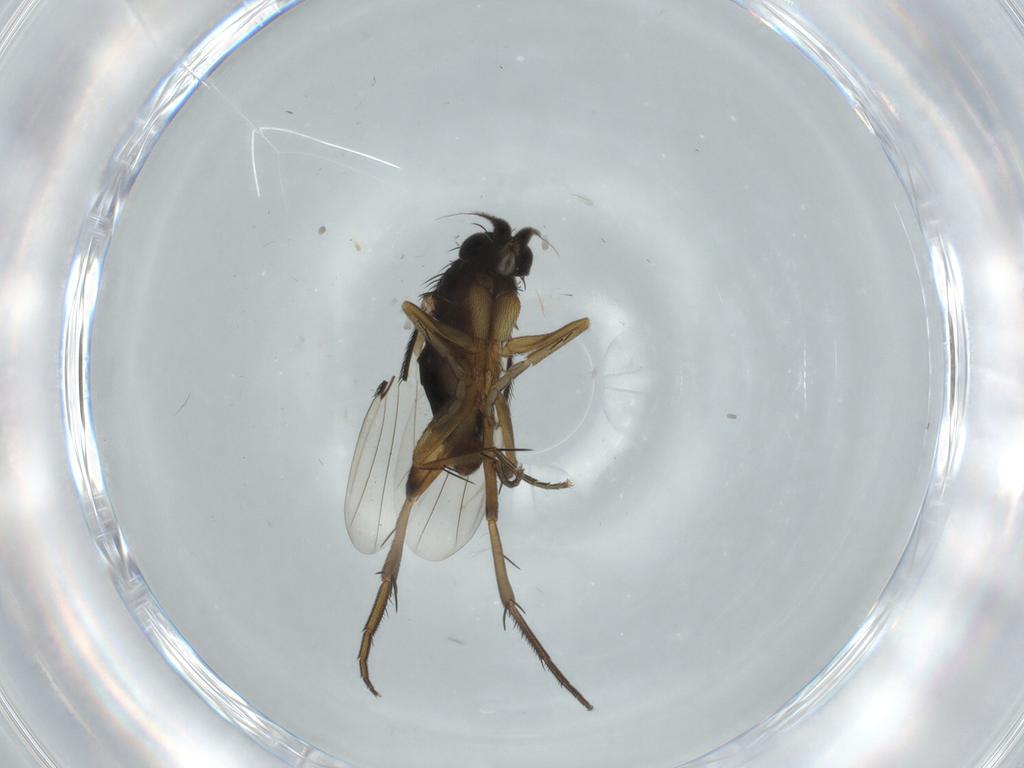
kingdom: Animalia
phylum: Arthropoda
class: Insecta
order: Diptera
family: Phoridae
